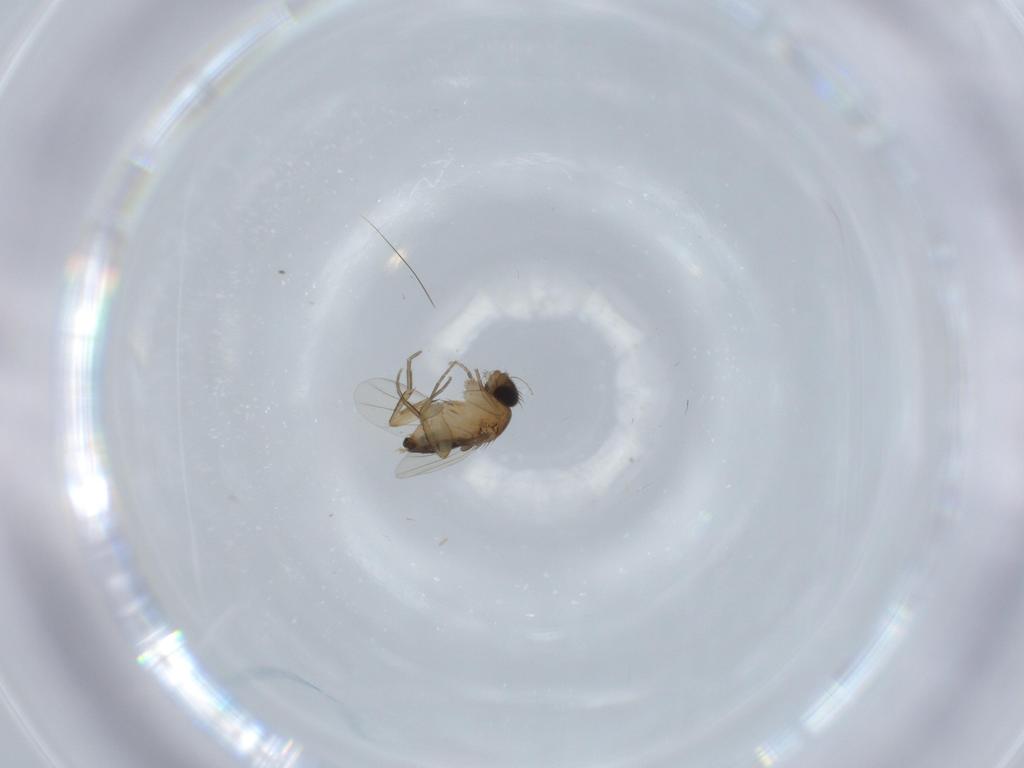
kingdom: Animalia
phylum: Arthropoda
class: Insecta
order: Diptera
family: Phoridae
